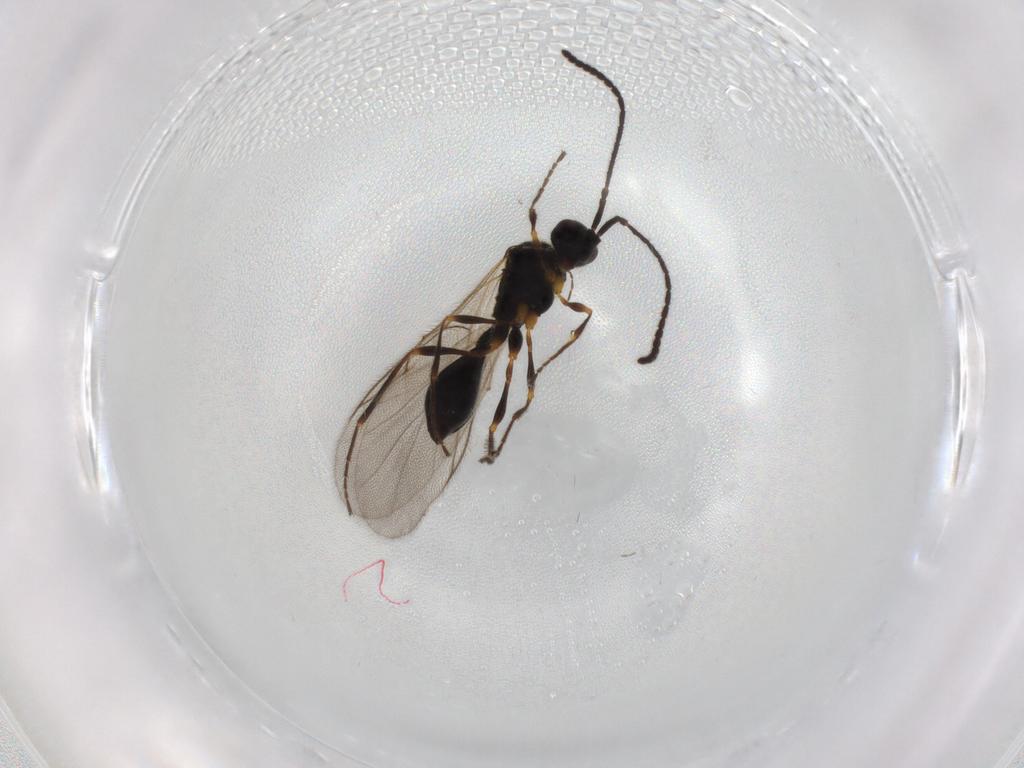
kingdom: Animalia
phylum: Arthropoda
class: Insecta
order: Hymenoptera
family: Diapriidae
